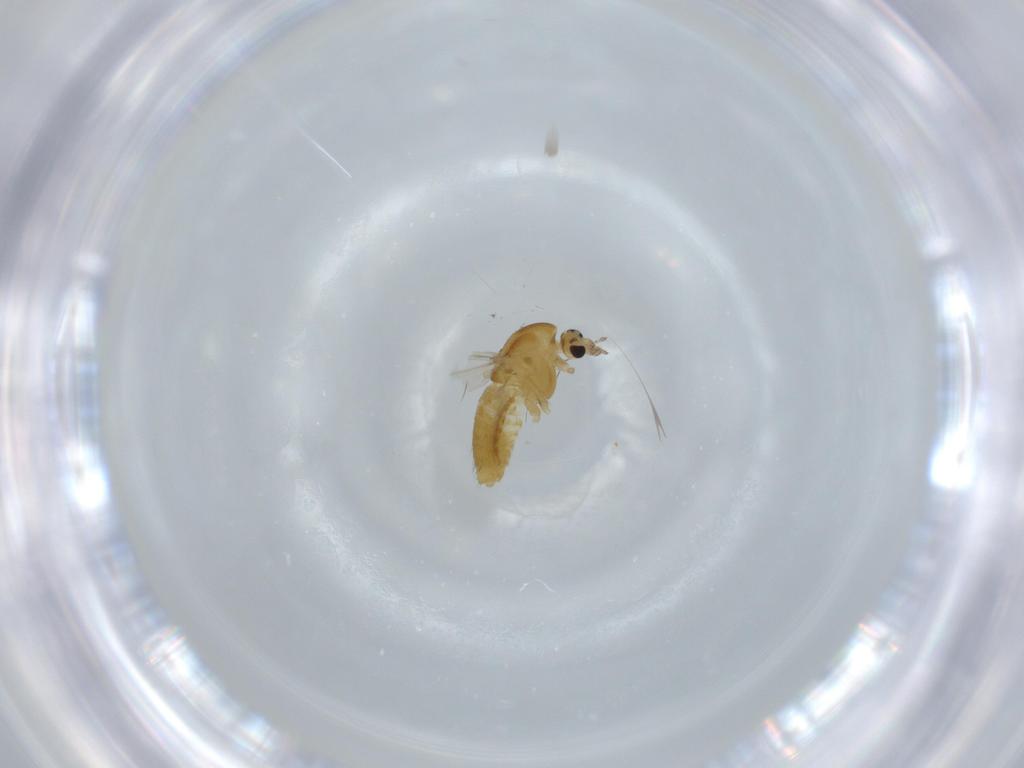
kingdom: Animalia
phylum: Arthropoda
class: Insecta
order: Diptera
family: Chironomidae
